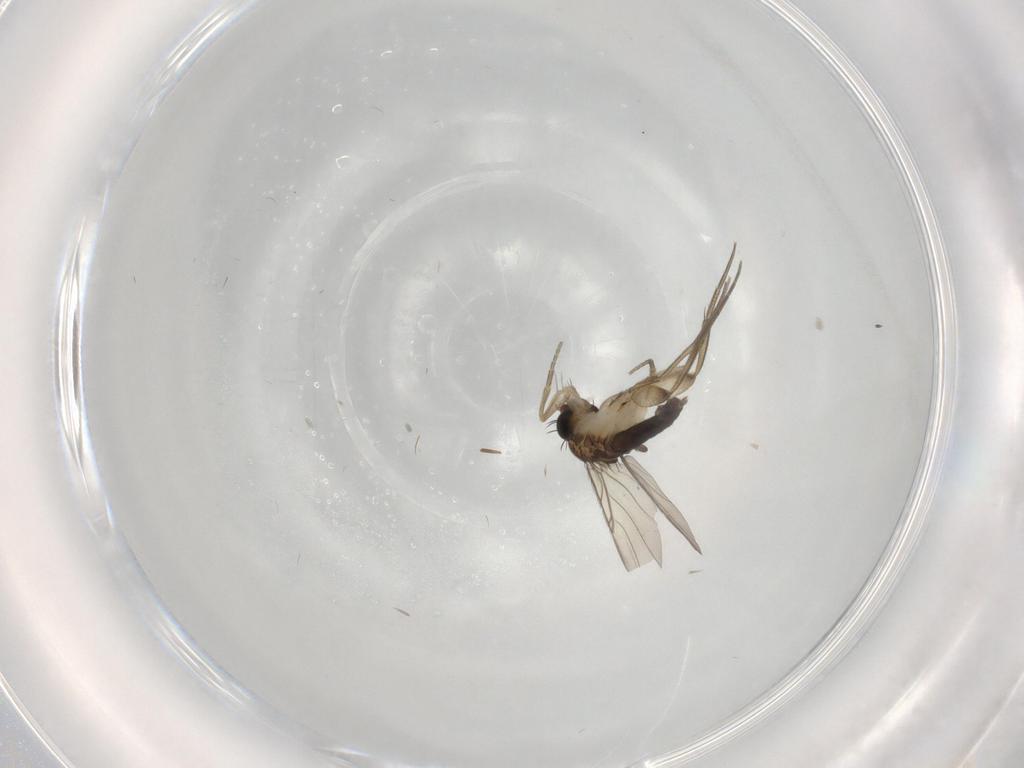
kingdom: Animalia
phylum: Arthropoda
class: Insecta
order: Diptera
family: Phoridae
